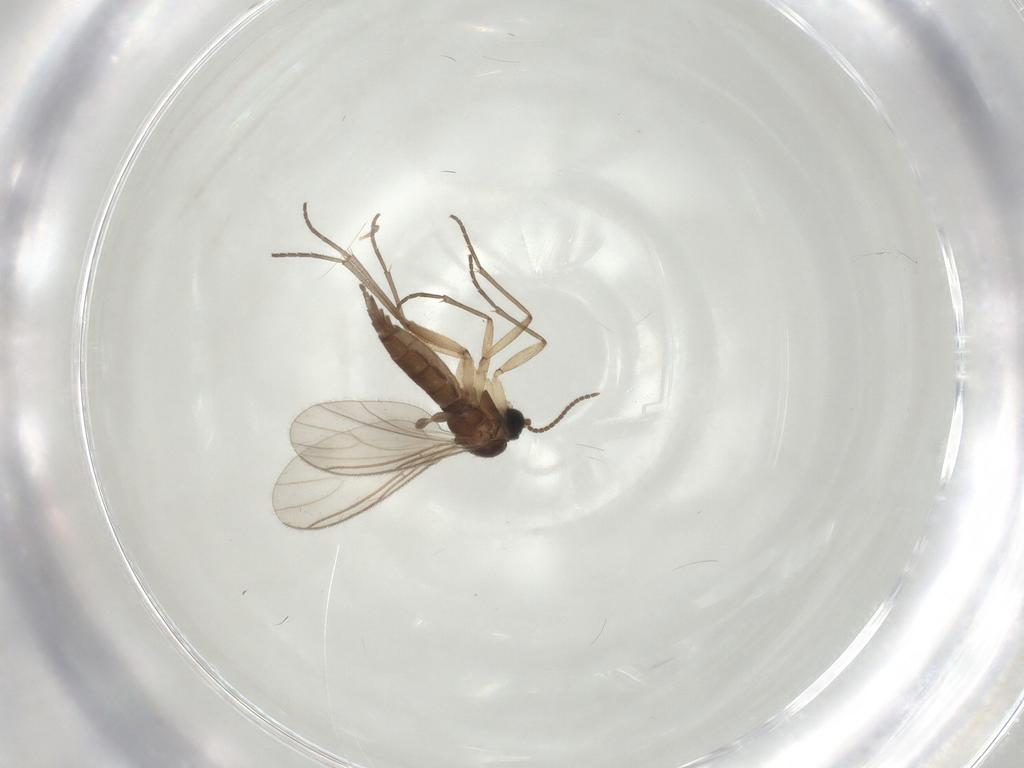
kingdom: Animalia
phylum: Arthropoda
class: Insecta
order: Diptera
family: Sciaridae
